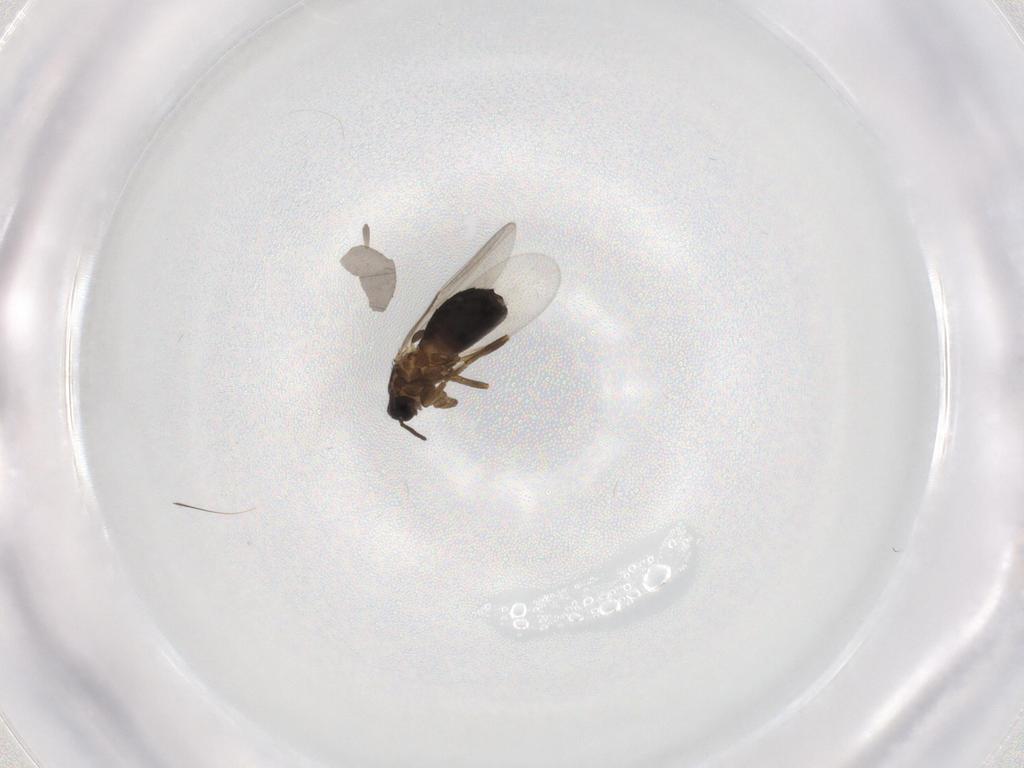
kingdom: Animalia
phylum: Arthropoda
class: Insecta
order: Diptera
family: Scatopsidae
